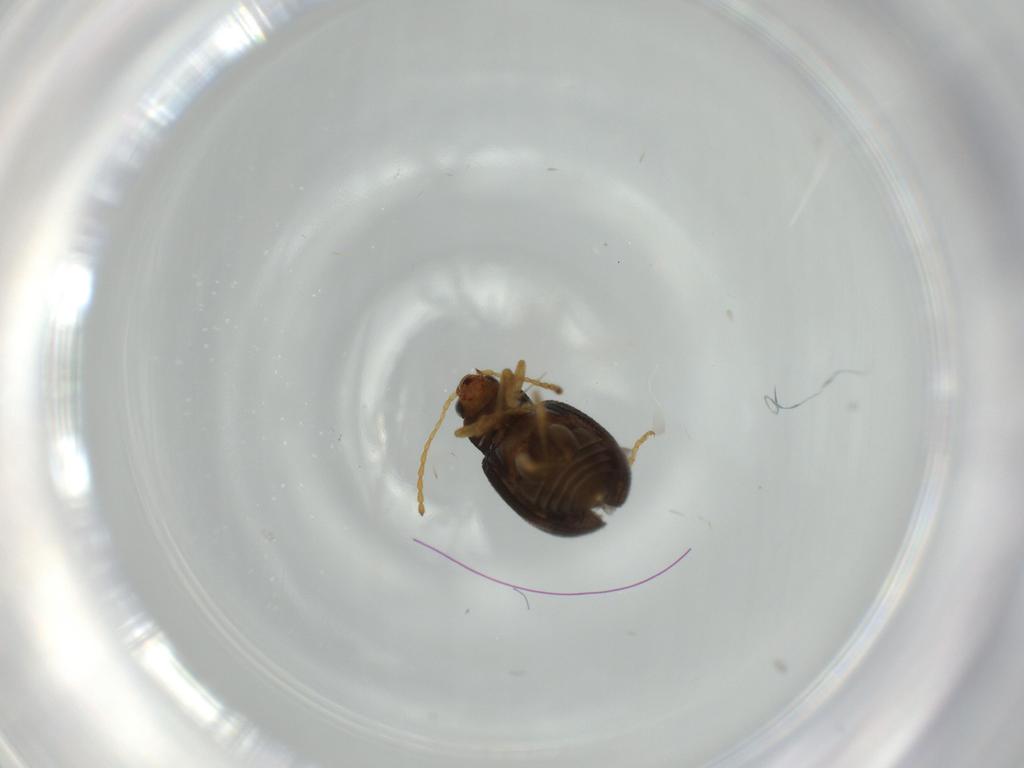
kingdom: Animalia
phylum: Arthropoda
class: Insecta
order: Coleoptera
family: Chrysomelidae
